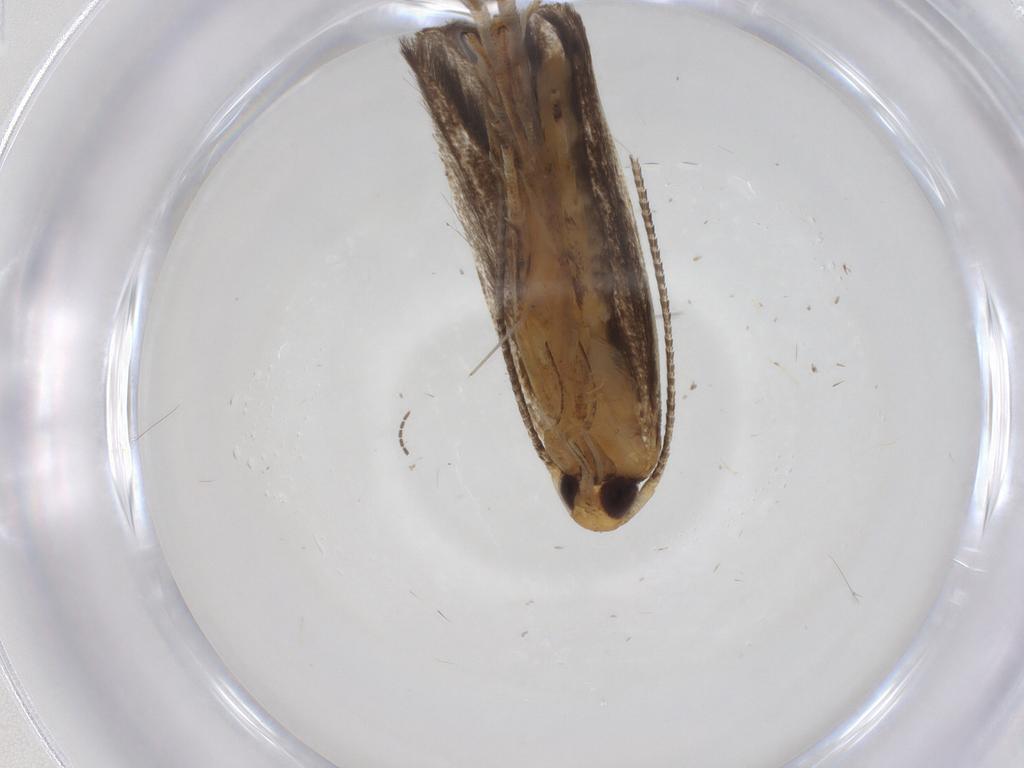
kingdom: Animalia
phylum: Arthropoda
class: Insecta
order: Lepidoptera
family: Pterolonchidae
